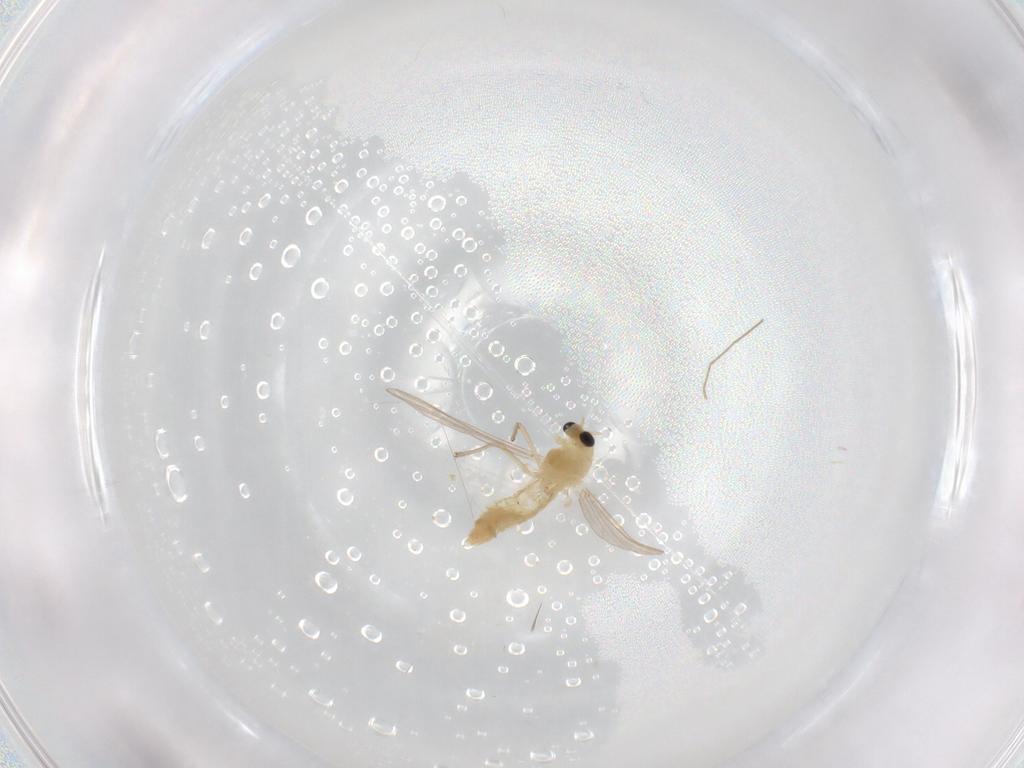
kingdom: Animalia
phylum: Arthropoda
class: Insecta
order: Diptera
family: Chironomidae
